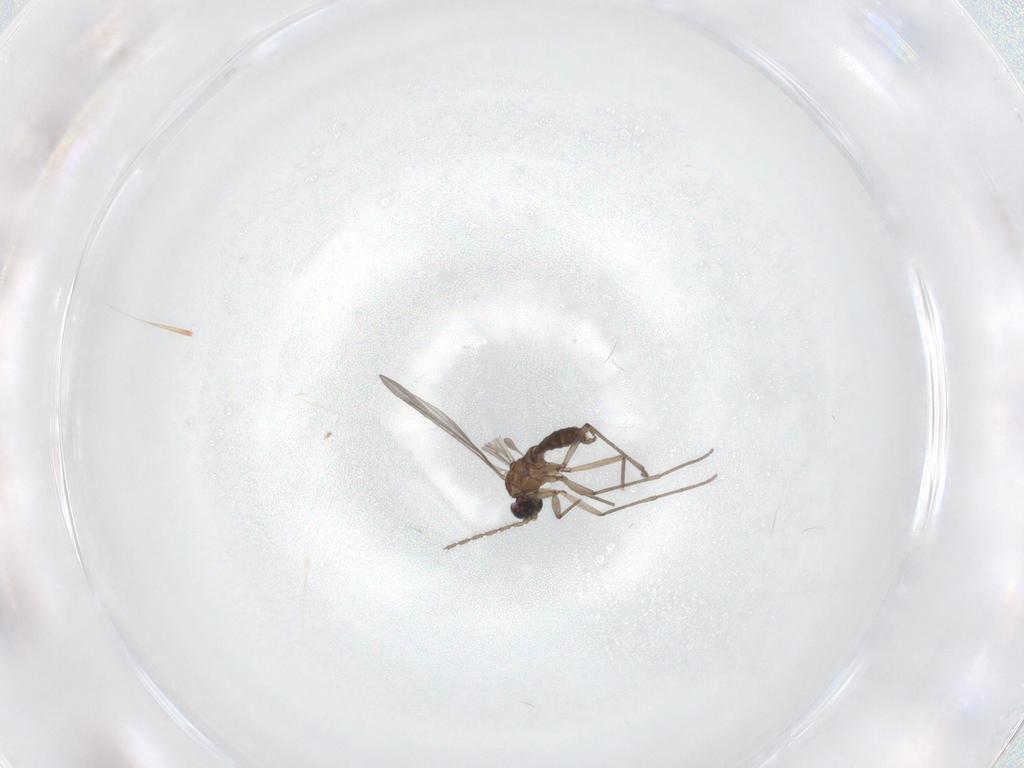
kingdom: Animalia
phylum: Arthropoda
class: Insecta
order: Diptera
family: Sciaridae
